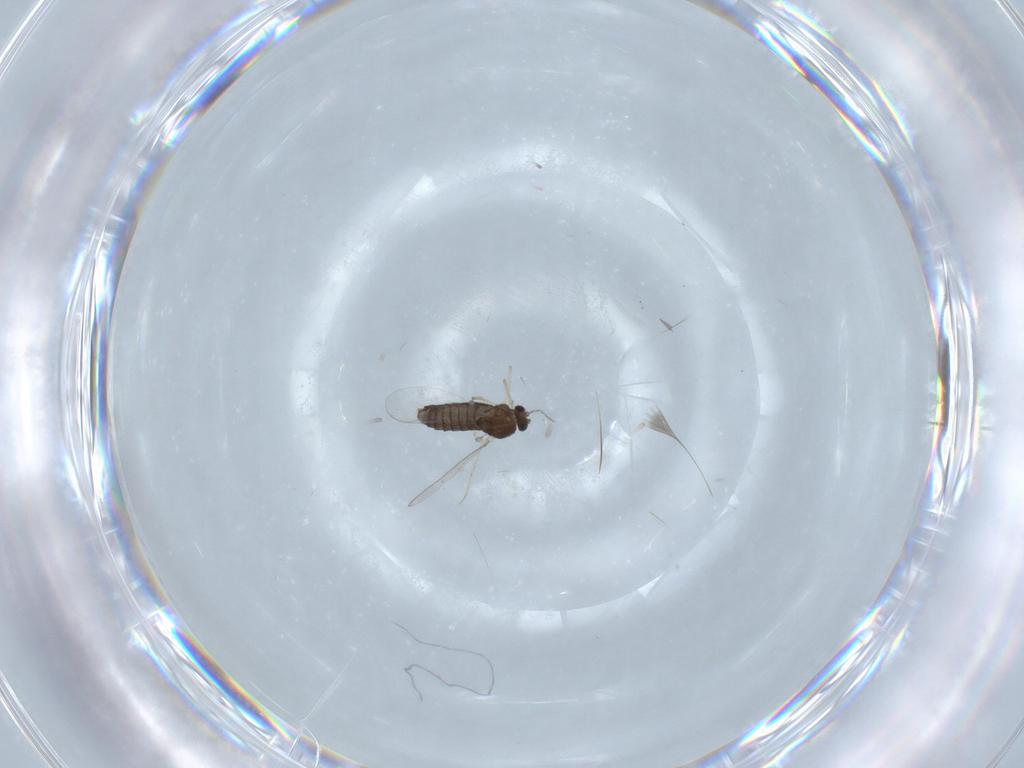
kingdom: Animalia
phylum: Arthropoda
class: Insecta
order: Diptera
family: Chironomidae
